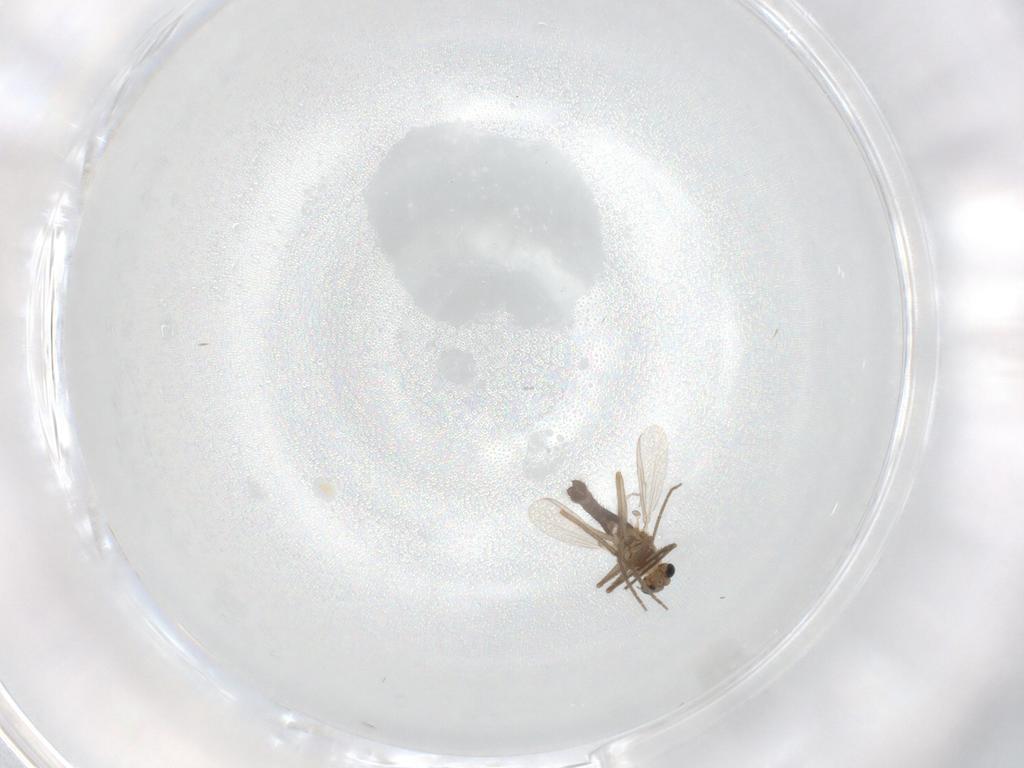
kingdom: Animalia
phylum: Arthropoda
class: Insecta
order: Diptera
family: Chironomidae
